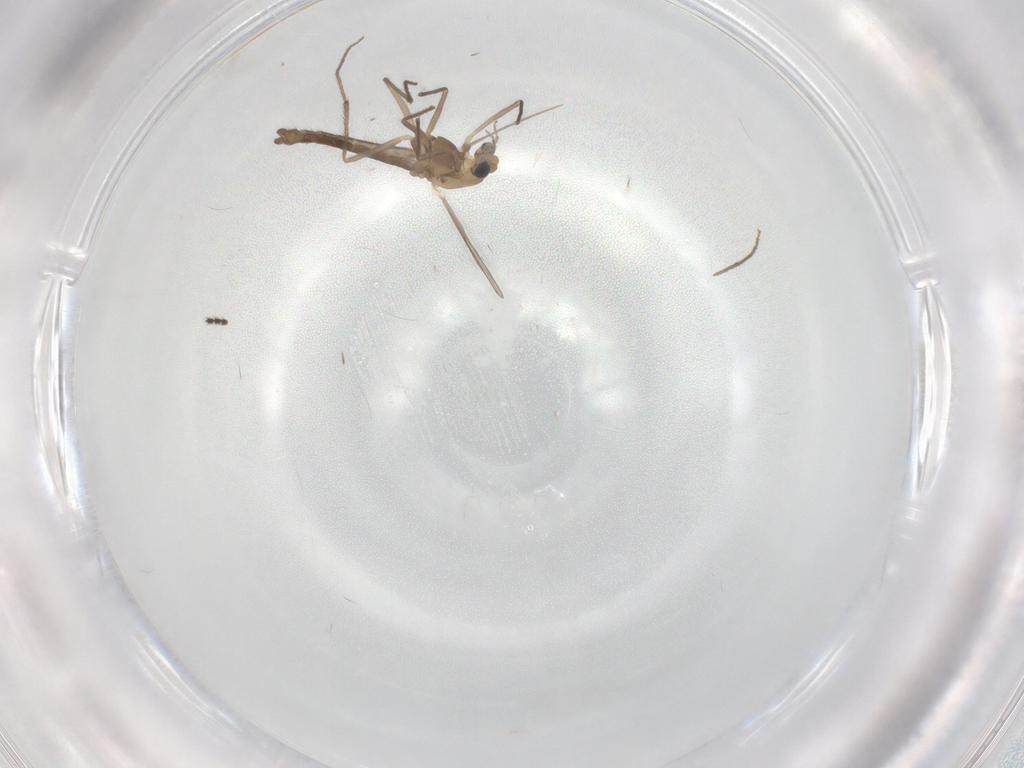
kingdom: Animalia
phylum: Arthropoda
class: Insecta
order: Diptera
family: Chironomidae
